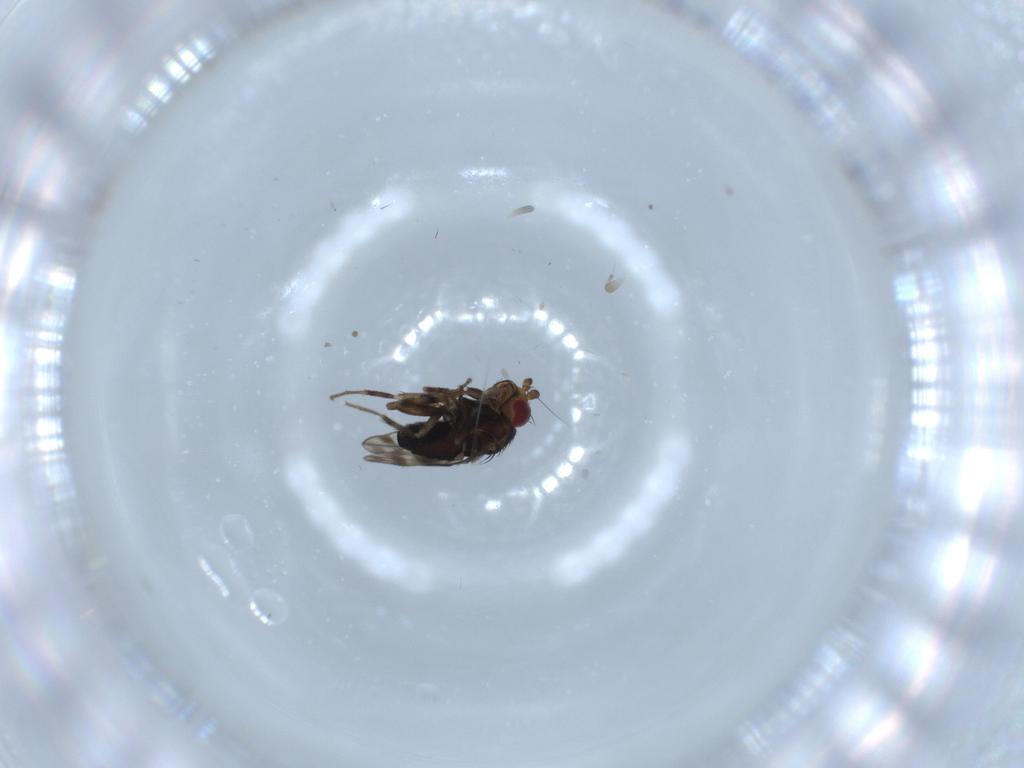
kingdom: Animalia
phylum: Arthropoda
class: Insecta
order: Diptera
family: Sphaeroceridae
